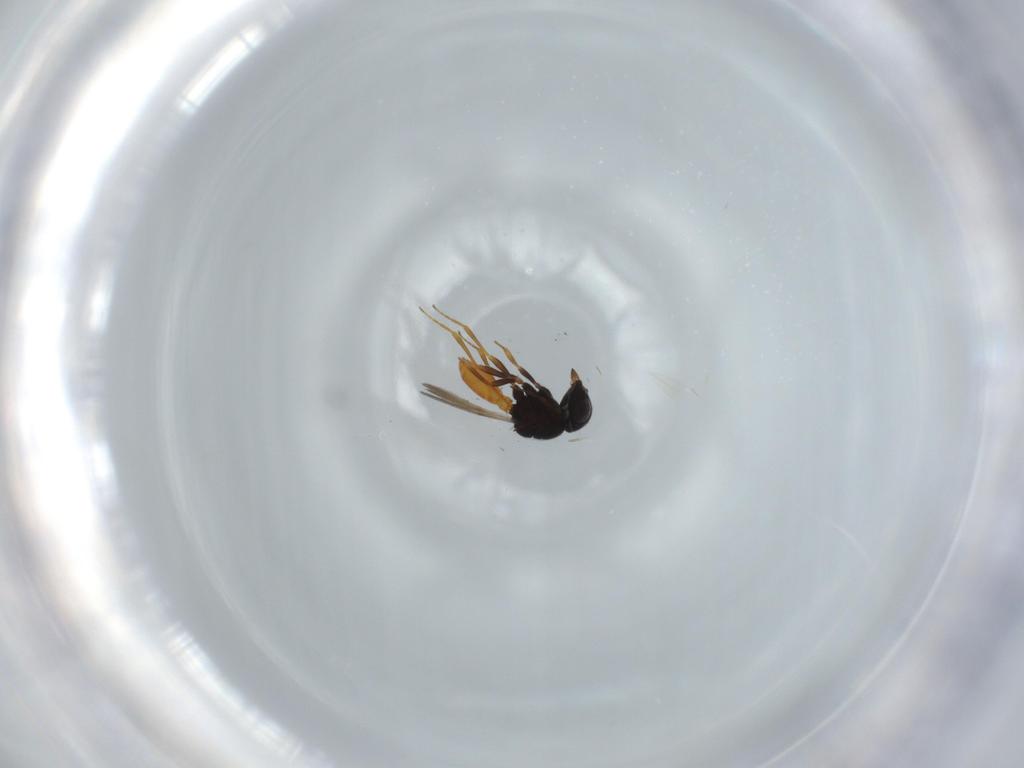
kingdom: Animalia
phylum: Arthropoda
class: Insecta
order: Hymenoptera
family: Scelionidae
